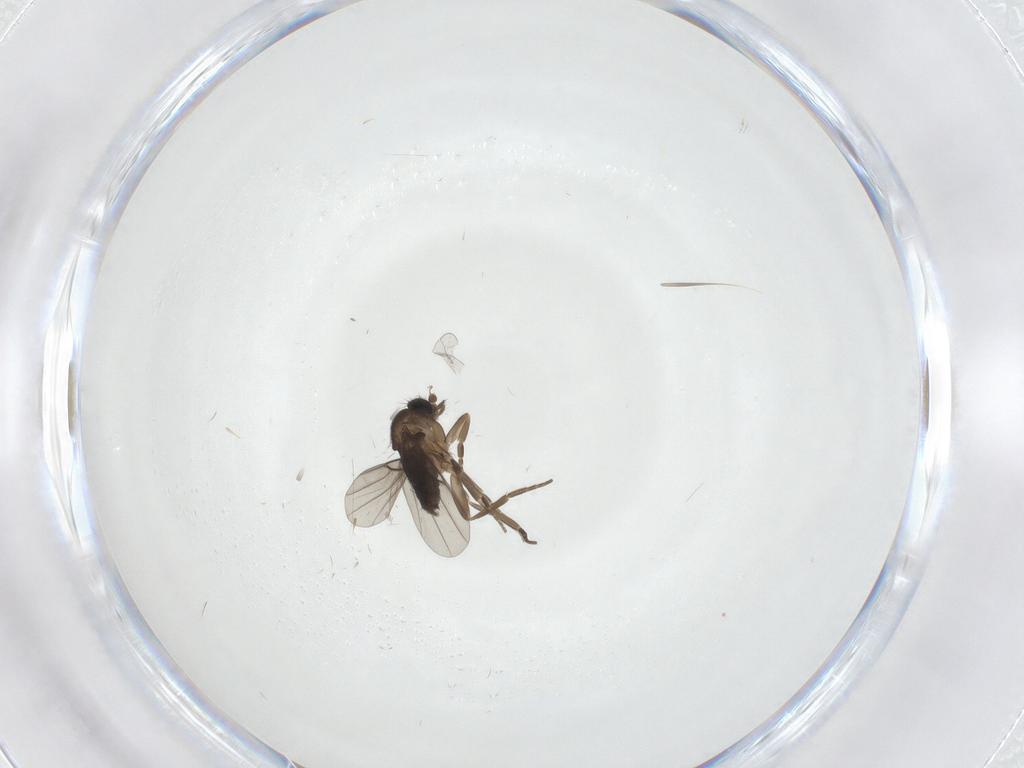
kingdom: Animalia
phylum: Arthropoda
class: Insecta
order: Diptera
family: Phoridae
